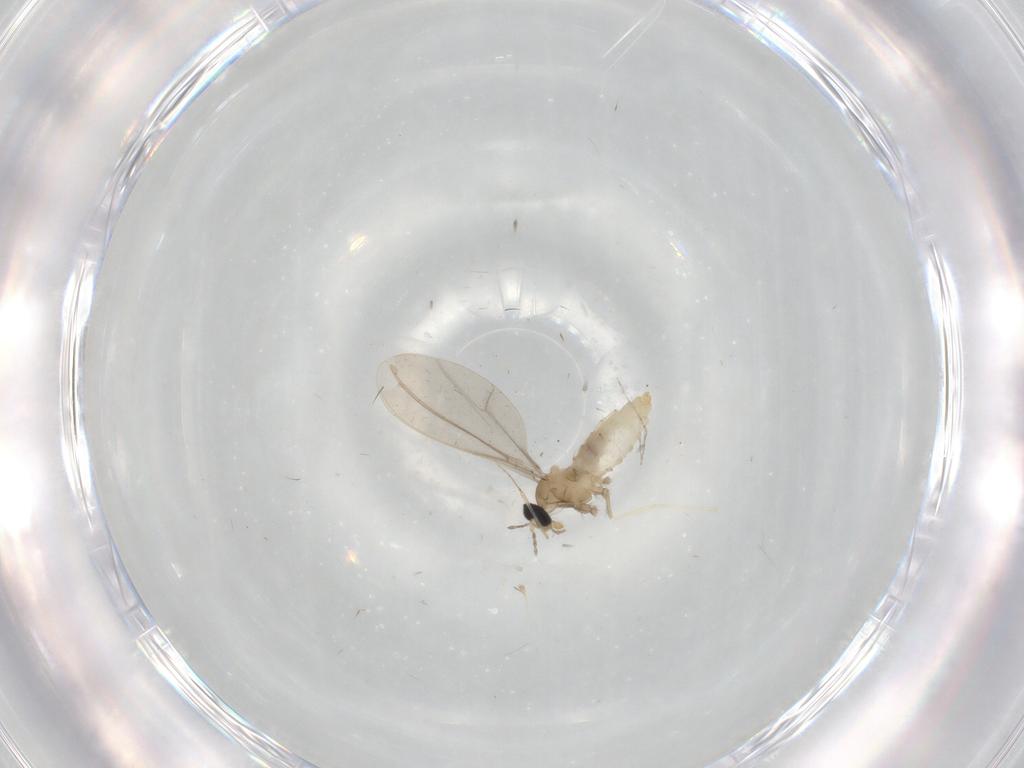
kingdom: Animalia
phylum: Arthropoda
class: Insecta
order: Diptera
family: Cecidomyiidae
